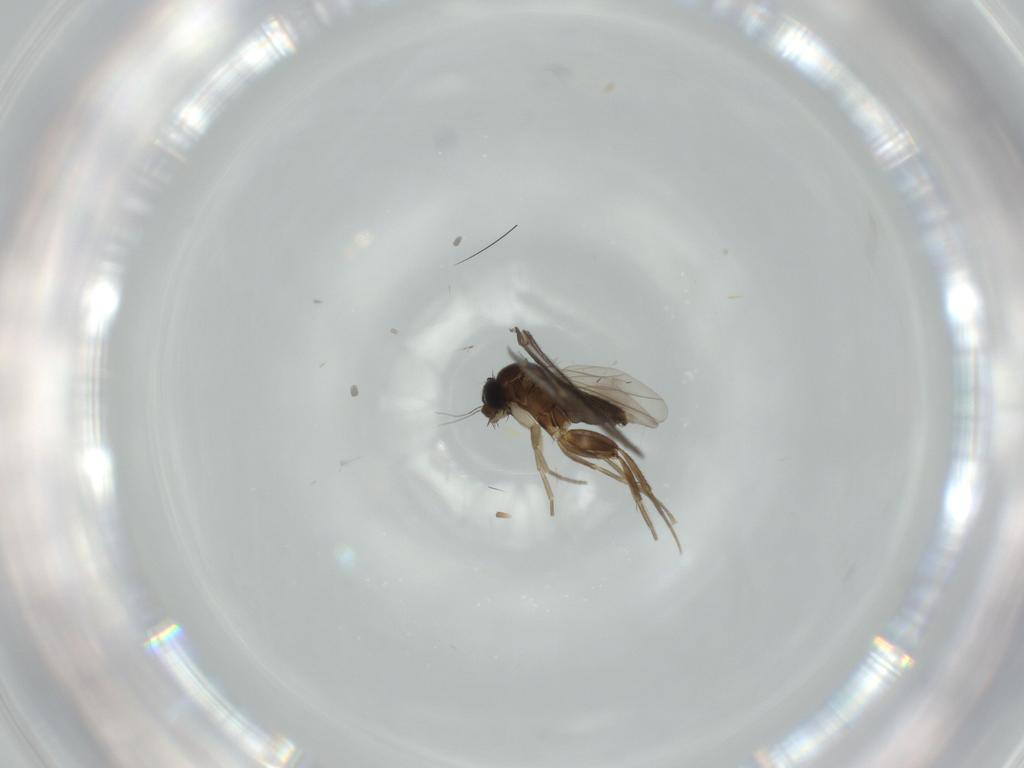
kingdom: Animalia
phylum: Arthropoda
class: Insecta
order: Diptera
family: Phoridae
